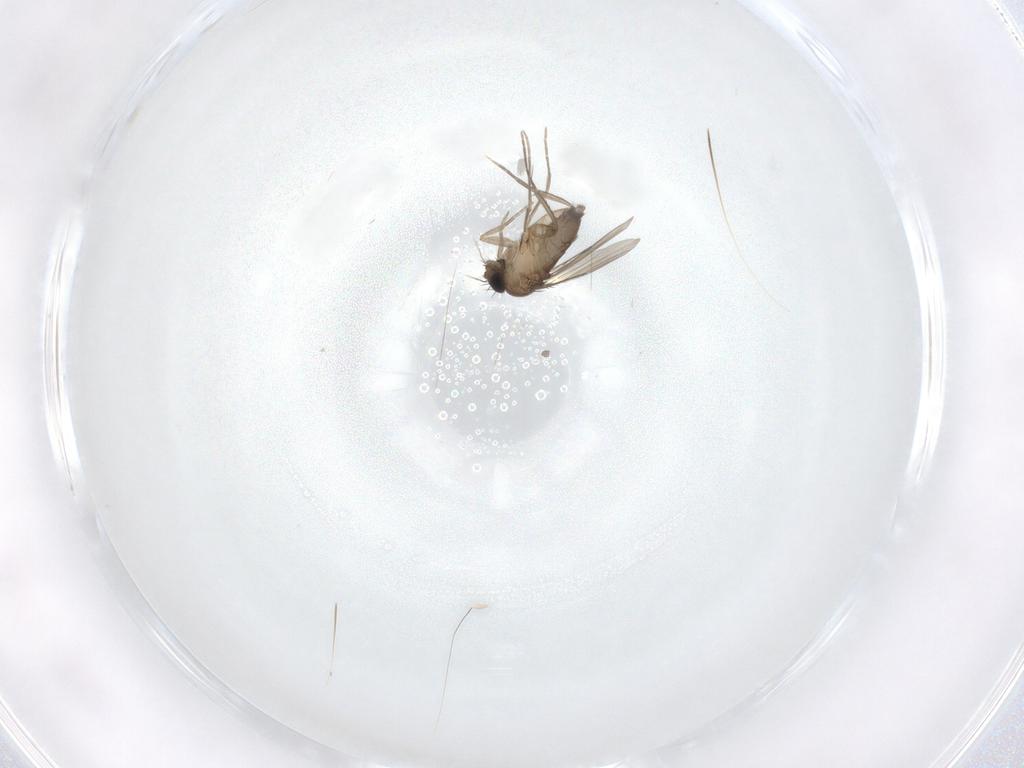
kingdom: Animalia
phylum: Arthropoda
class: Insecta
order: Diptera
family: Phoridae
